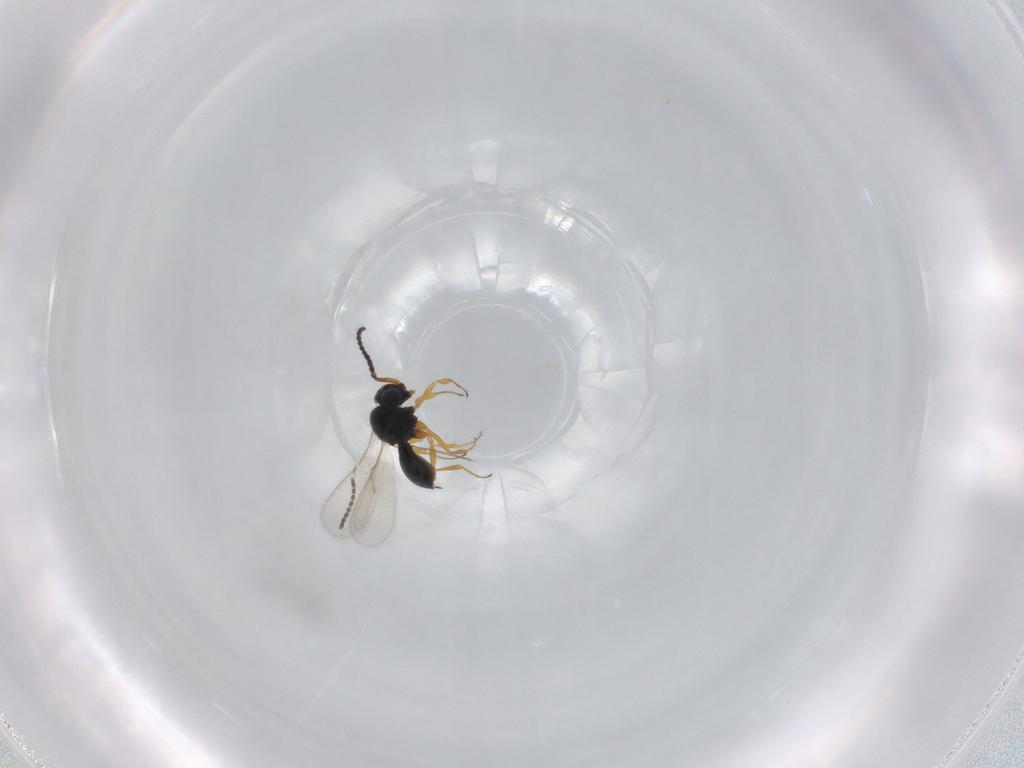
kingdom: Animalia
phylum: Arthropoda
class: Insecta
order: Hymenoptera
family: Scelionidae
